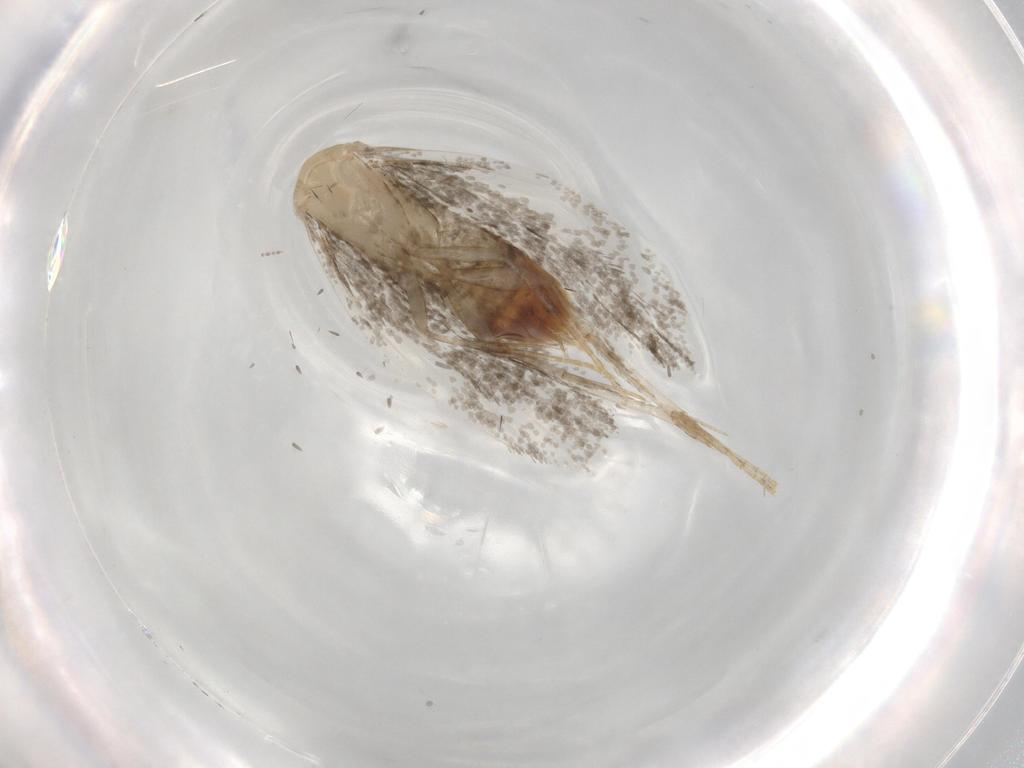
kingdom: Animalia
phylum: Arthropoda
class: Insecta
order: Lepidoptera
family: Psychidae
